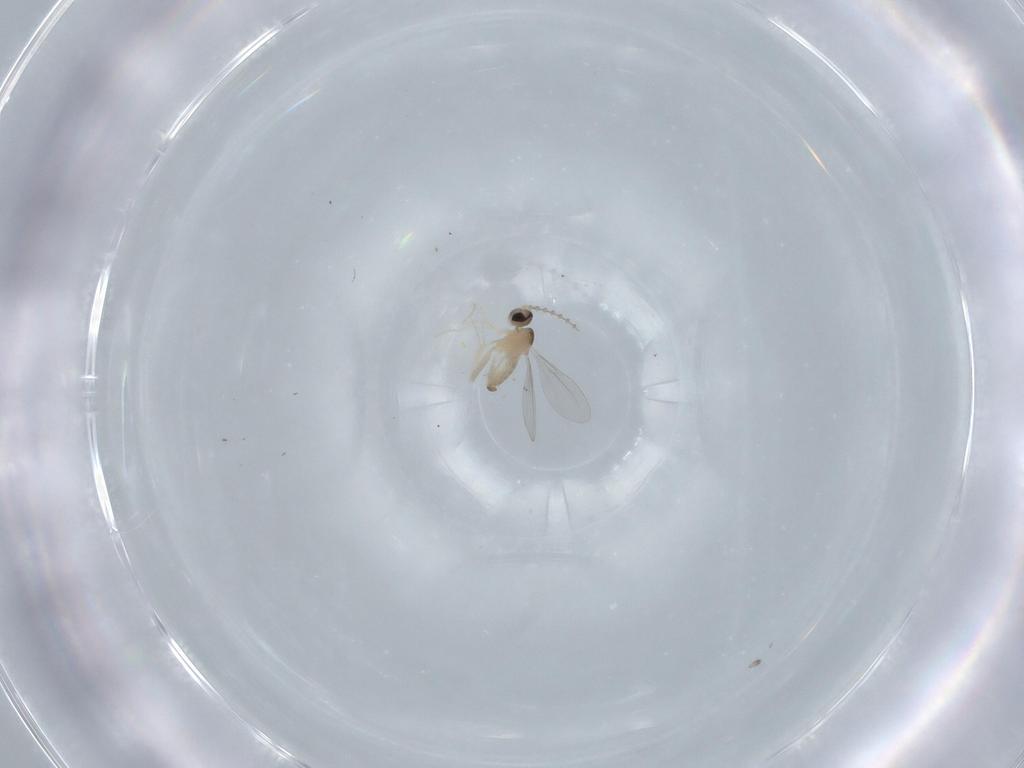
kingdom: Animalia
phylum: Arthropoda
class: Insecta
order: Diptera
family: Cecidomyiidae
